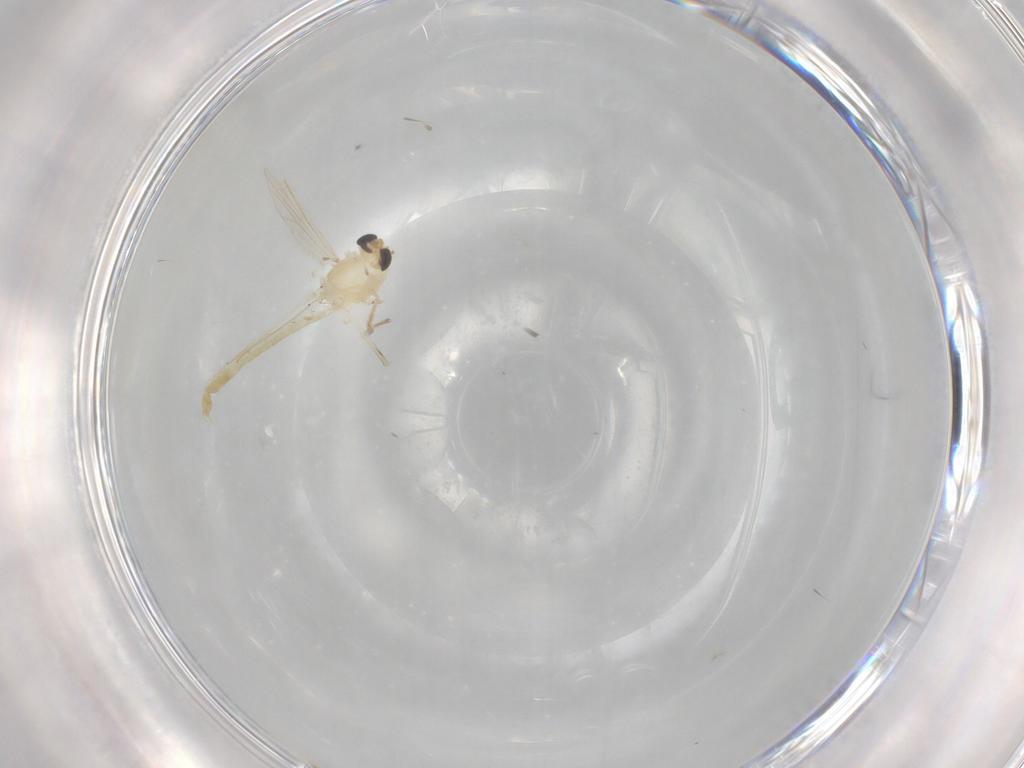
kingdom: Animalia
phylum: Arthropoda
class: Insecta
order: Diptera
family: Chironomidae
